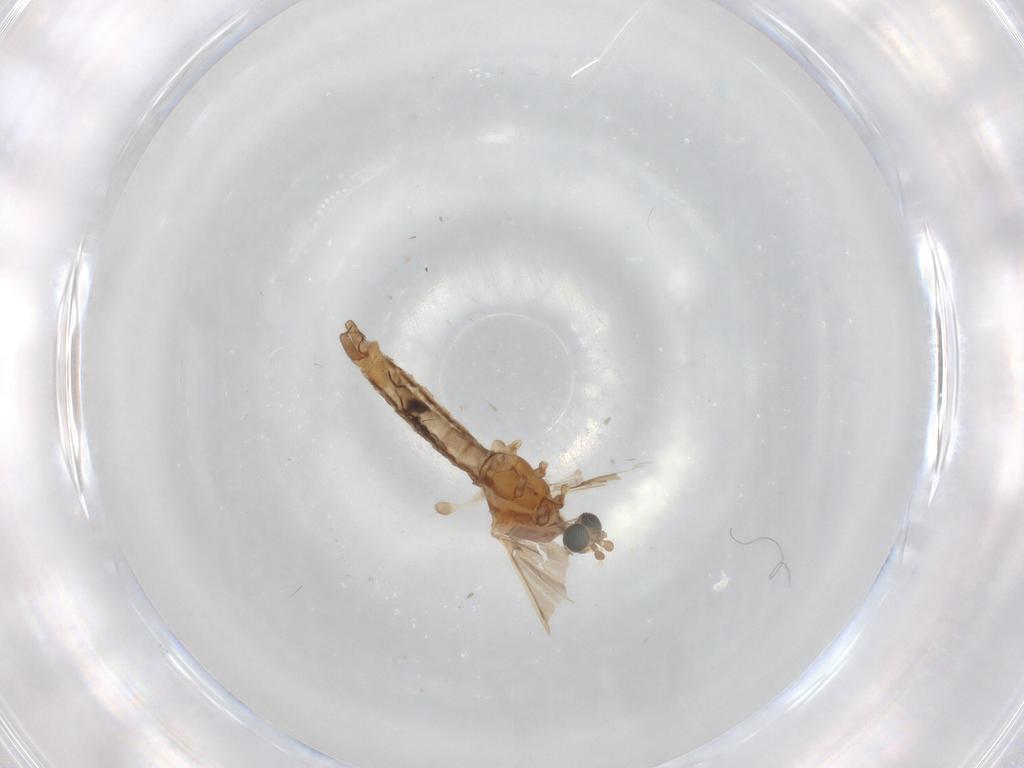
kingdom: Animalia
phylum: Arthropoda
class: Insecta
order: Diptera
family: Limoniidae
